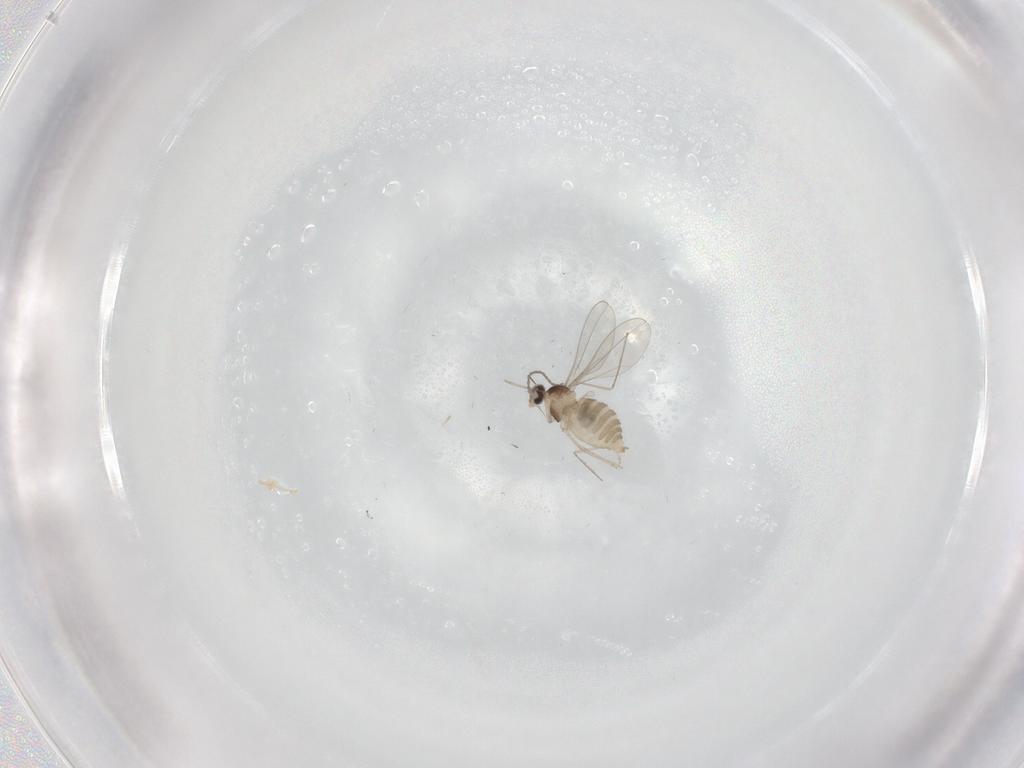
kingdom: Animalia
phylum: Arthropoda
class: Insecta
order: Diptera
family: Cecidomyiidae
